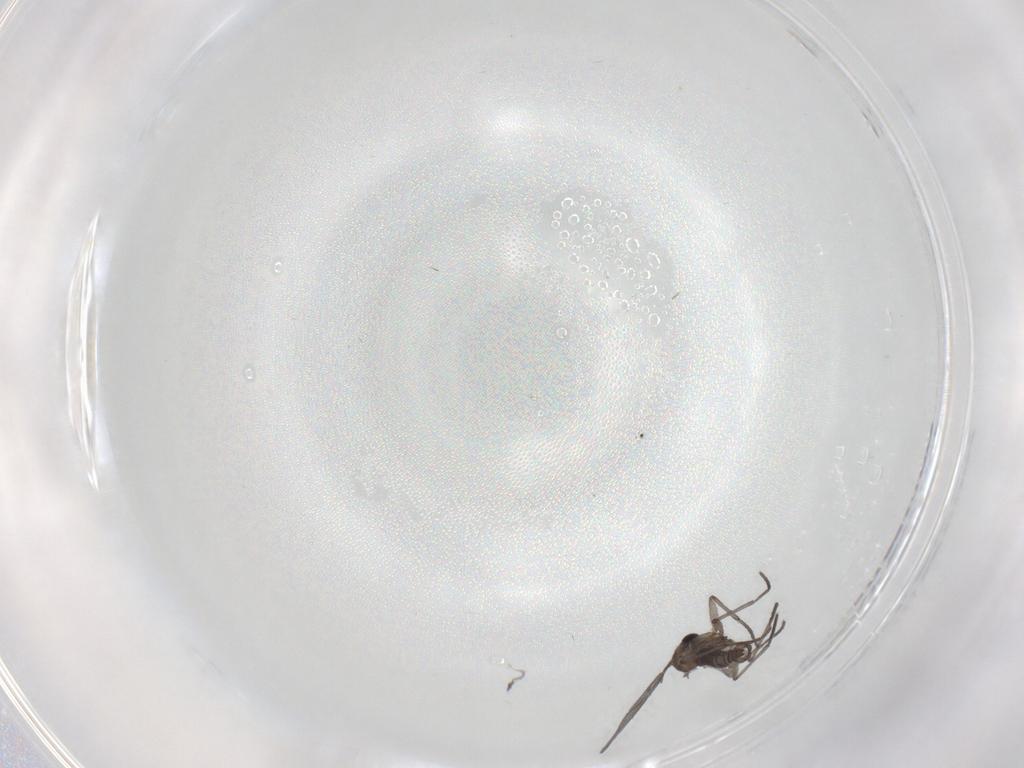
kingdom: Animalia
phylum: Arthropoda
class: Insecta
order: Diptera
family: Sciaridae
